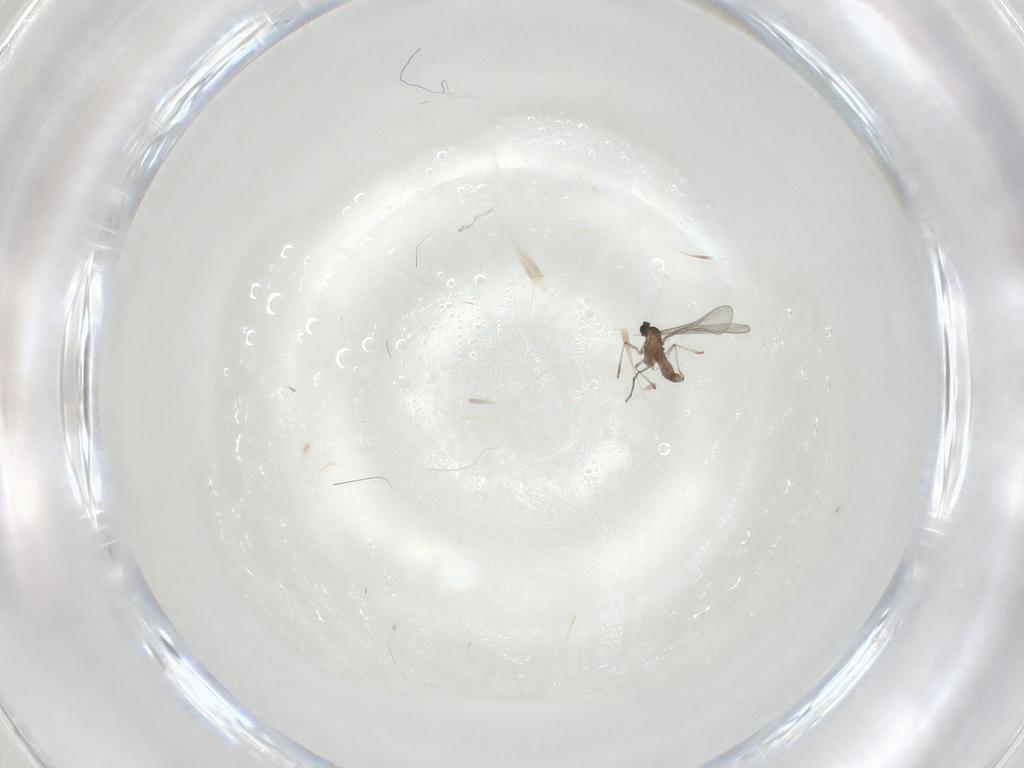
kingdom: Animalia
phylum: Arthropoda
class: Insecta
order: Diptera
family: Cecidomyiidae
